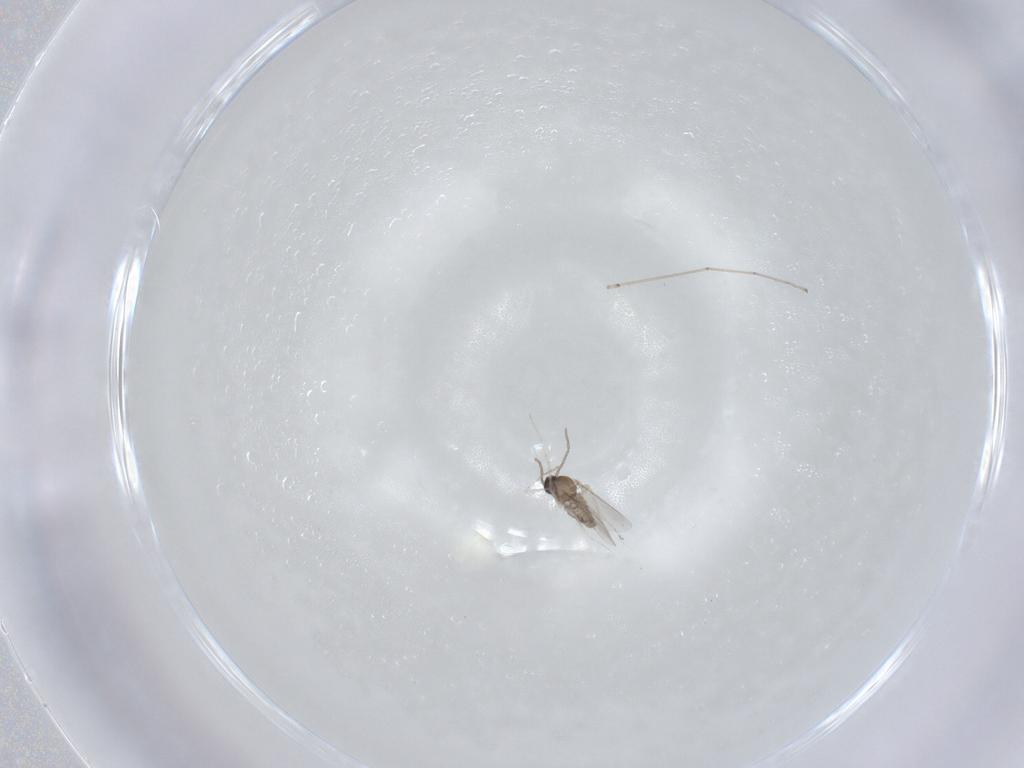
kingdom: Animalia
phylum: Arthropoda
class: Insecta
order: Diptera
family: Cecidomyiidae
